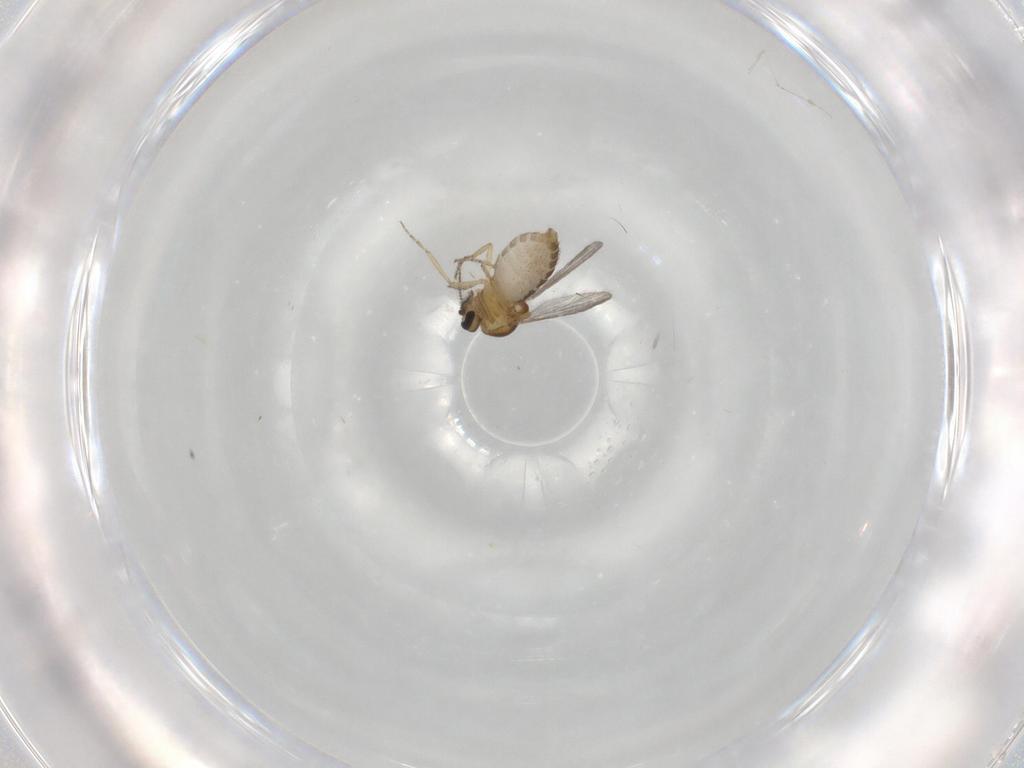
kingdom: Animalia
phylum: Arthropoda
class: Insecta
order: Diptera
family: Ceratopogonidae
